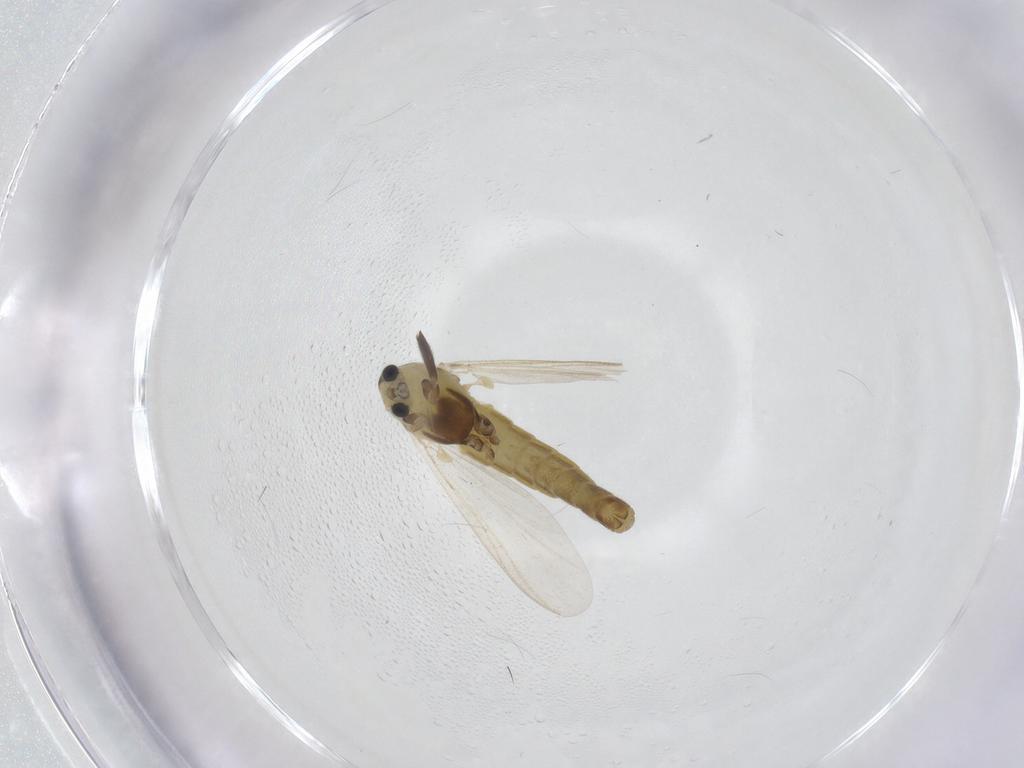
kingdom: Animalia
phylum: Arthropoda
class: Insecta
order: Diptera
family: Chironomidae
